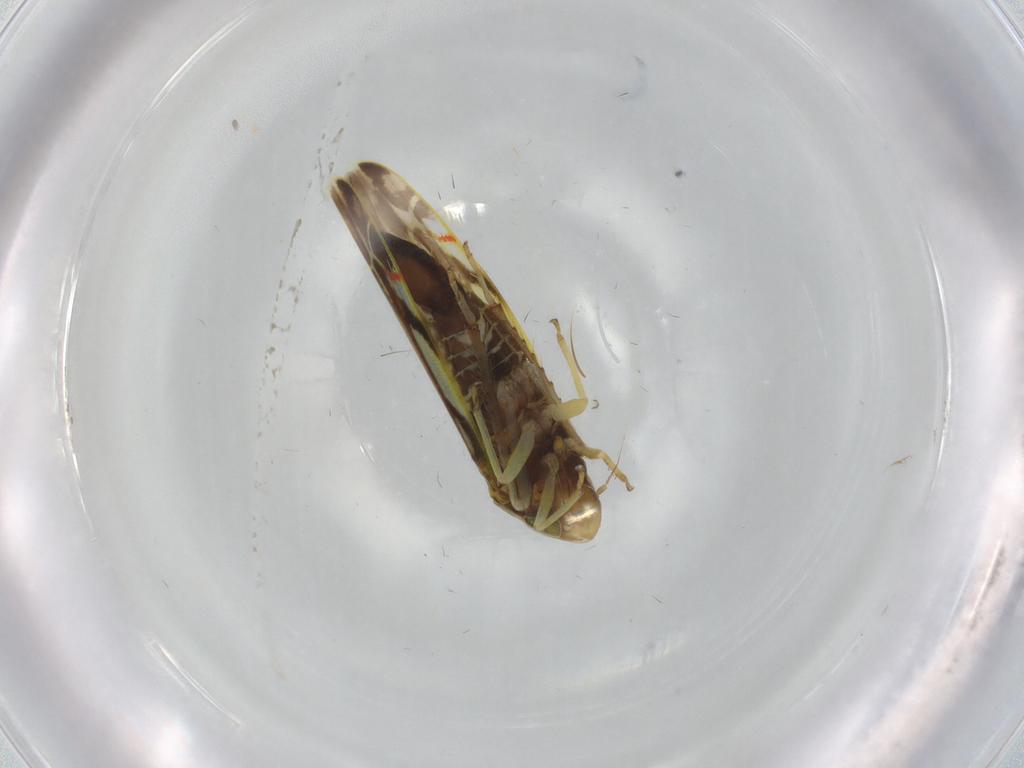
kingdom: Animalia
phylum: Arthropoda
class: Insecta
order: Hemiptera
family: Cicadellidae
